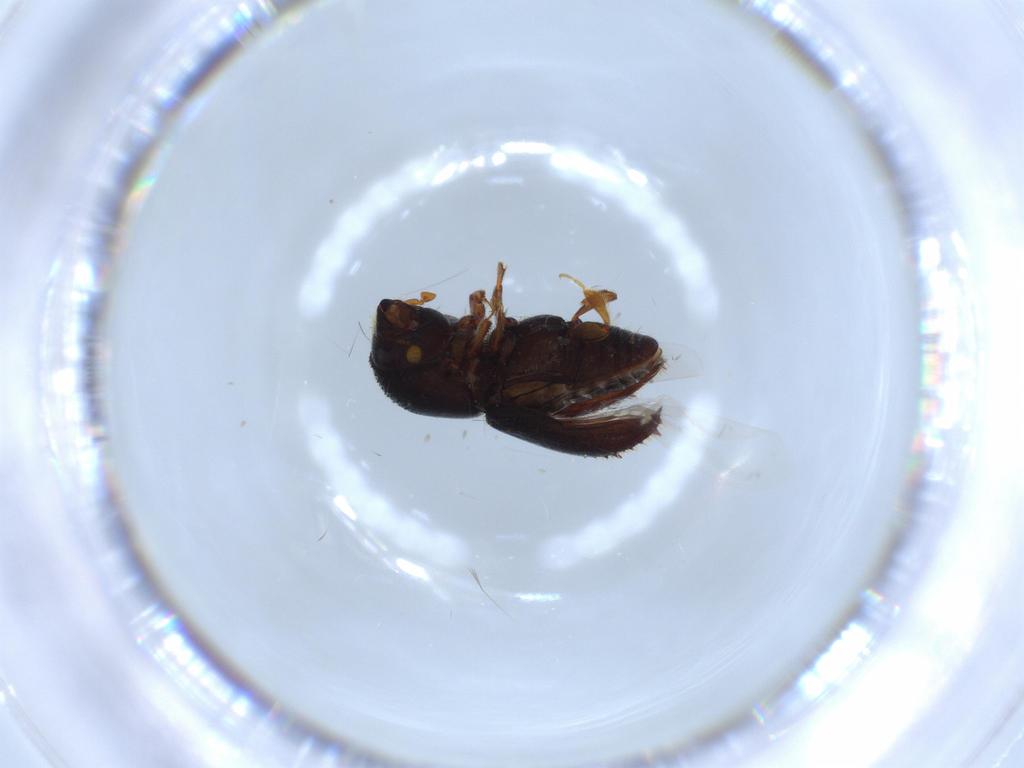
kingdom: Animalia
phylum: Arthropoda
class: Insecta
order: Coleoptera
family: Curculionidae
